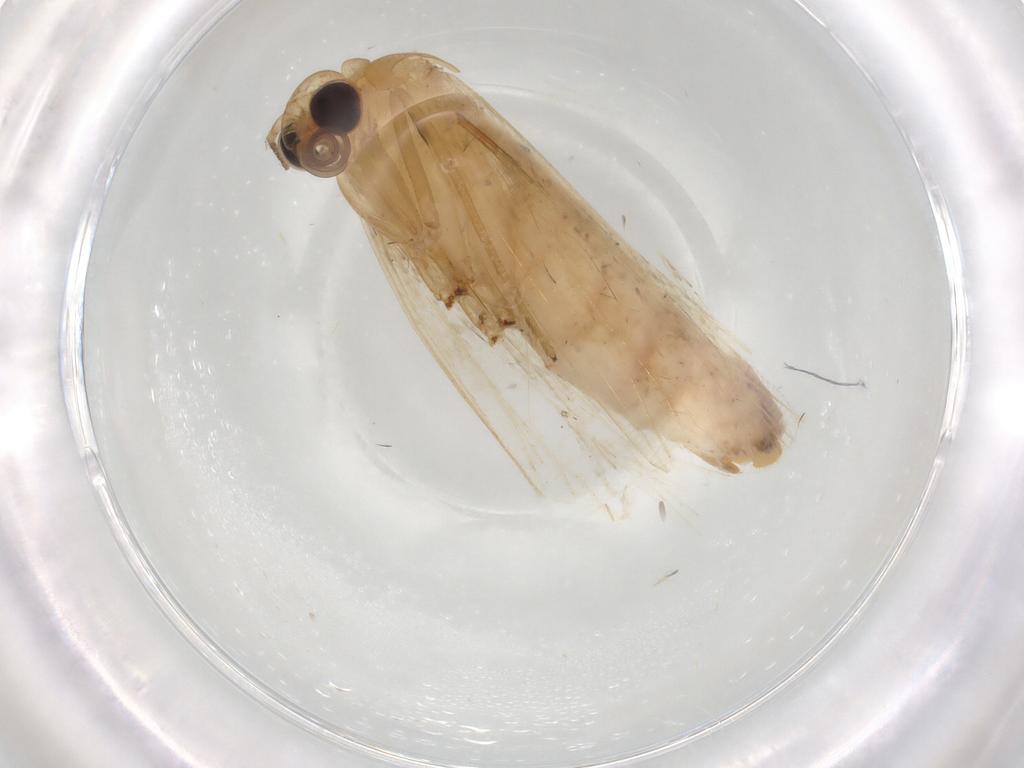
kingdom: Animalia
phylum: Arthropoda
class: Insecta
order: Lepidoptera
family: Erebidae
